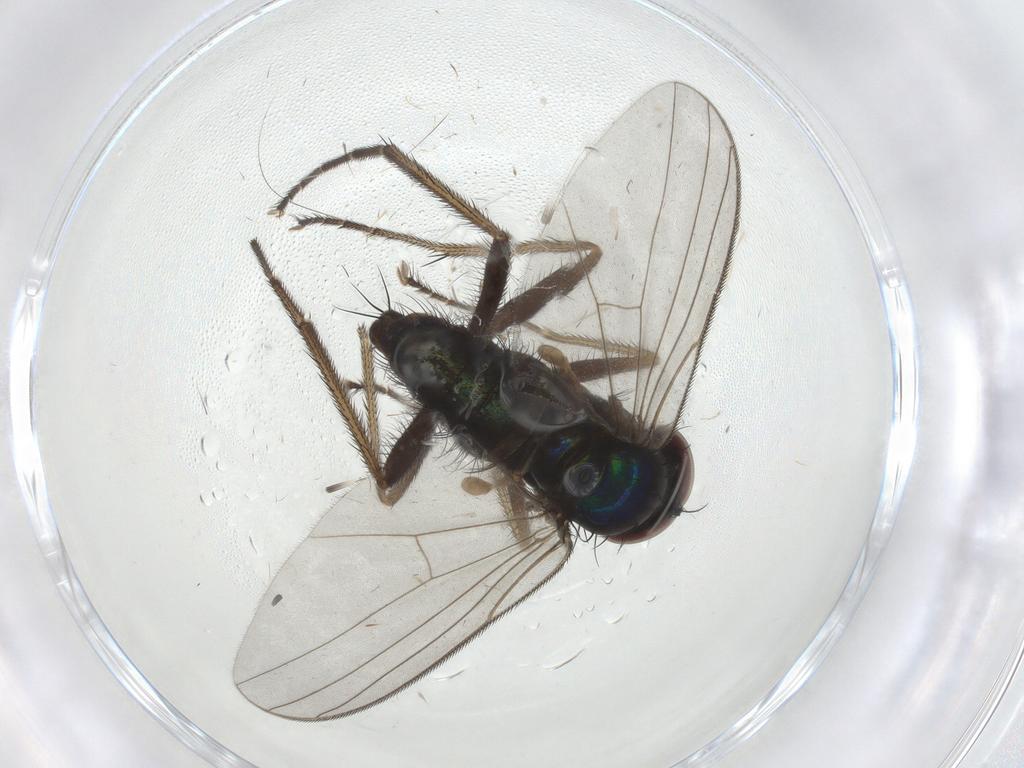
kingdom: Animalia
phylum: Arthropoda
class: Insecta
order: Diptera
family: Dolichopodidae
